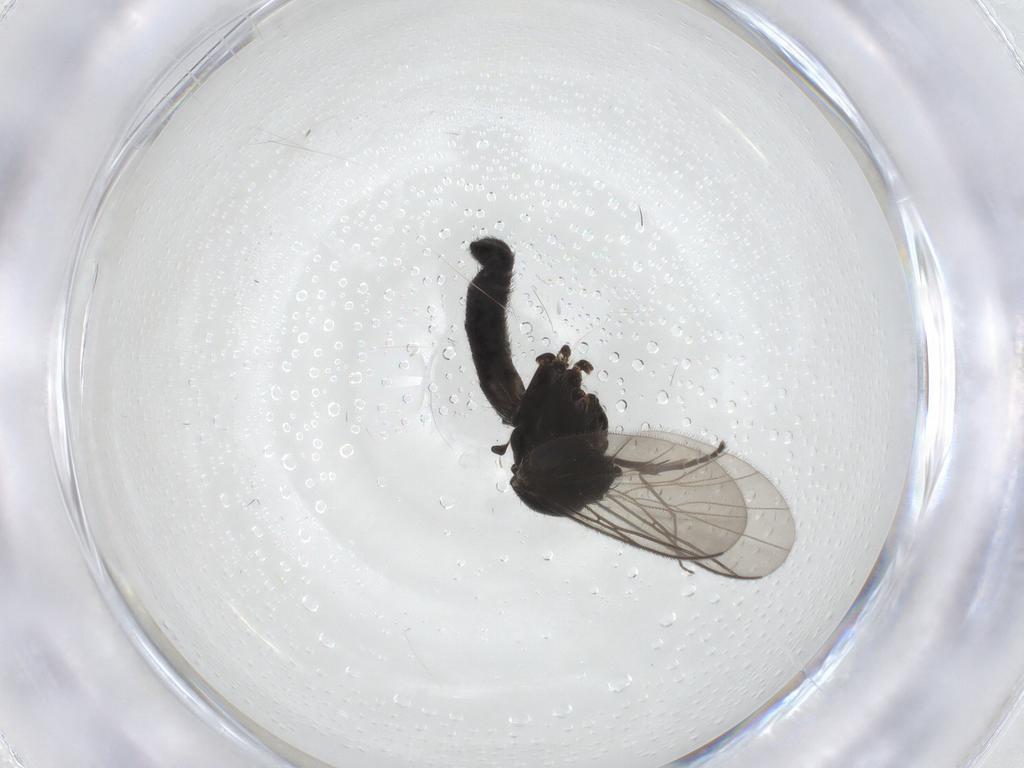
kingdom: Animalia
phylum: Arthropoda
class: Insecta
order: Diptera
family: Sciaridae
